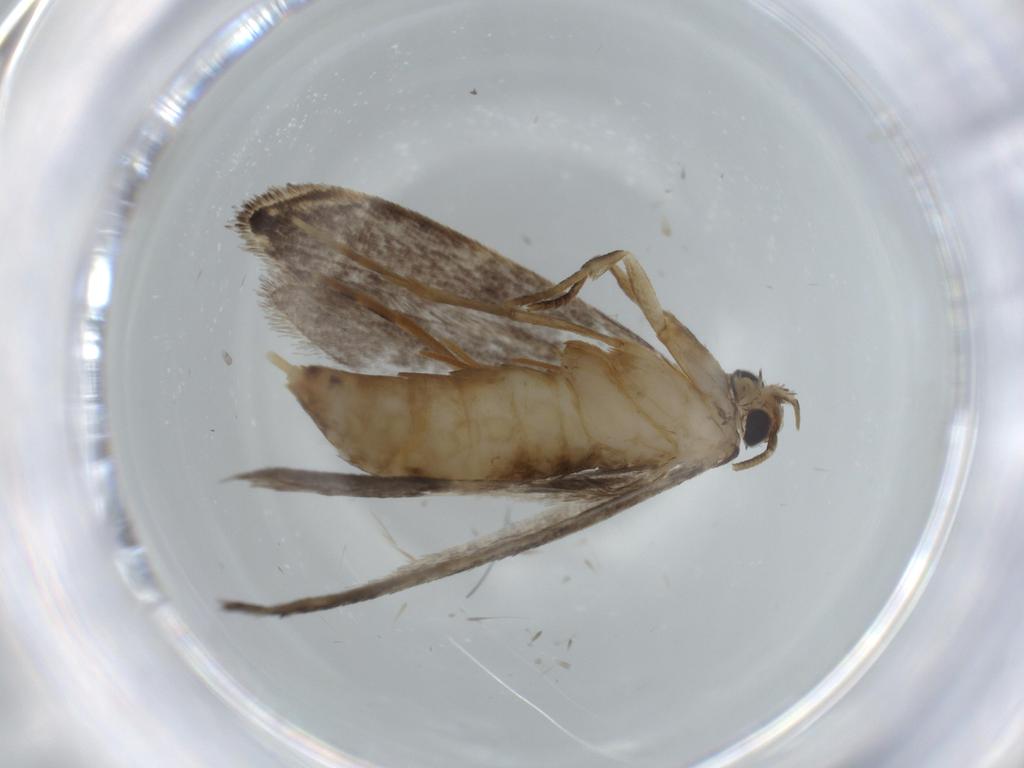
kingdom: Animalia
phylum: Arthropoda
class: Insecta
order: Lepidoptera
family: Tineidae
